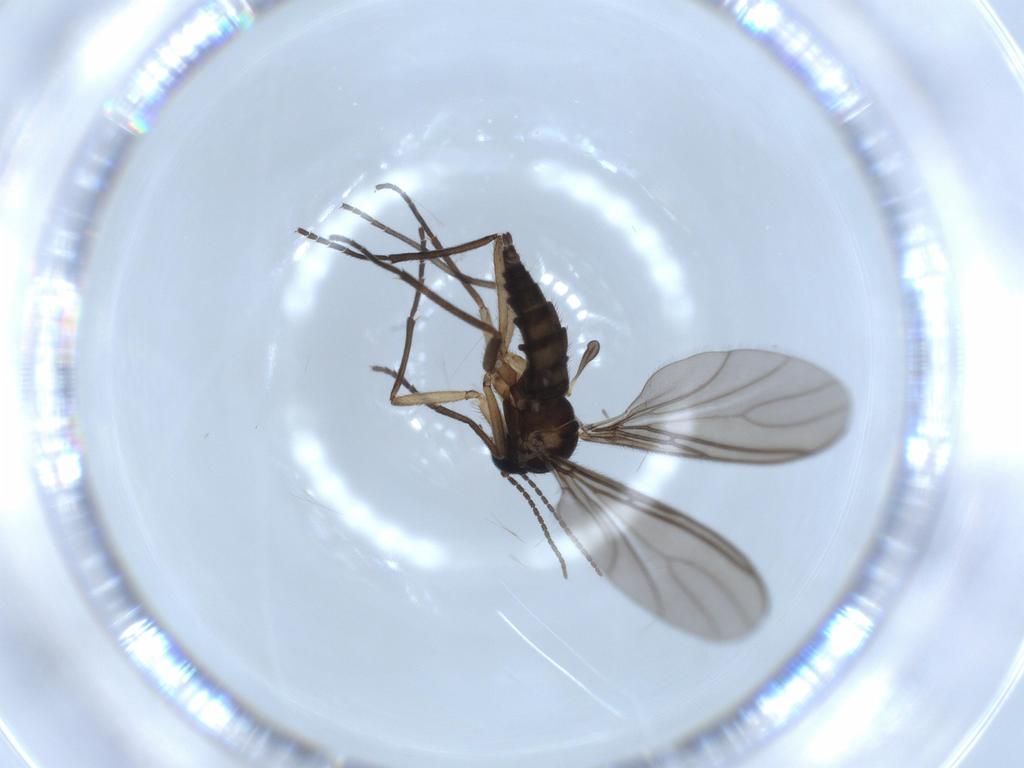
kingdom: Animalia
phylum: Arthropoda
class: Insecta
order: Diptera
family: Sciaridae
